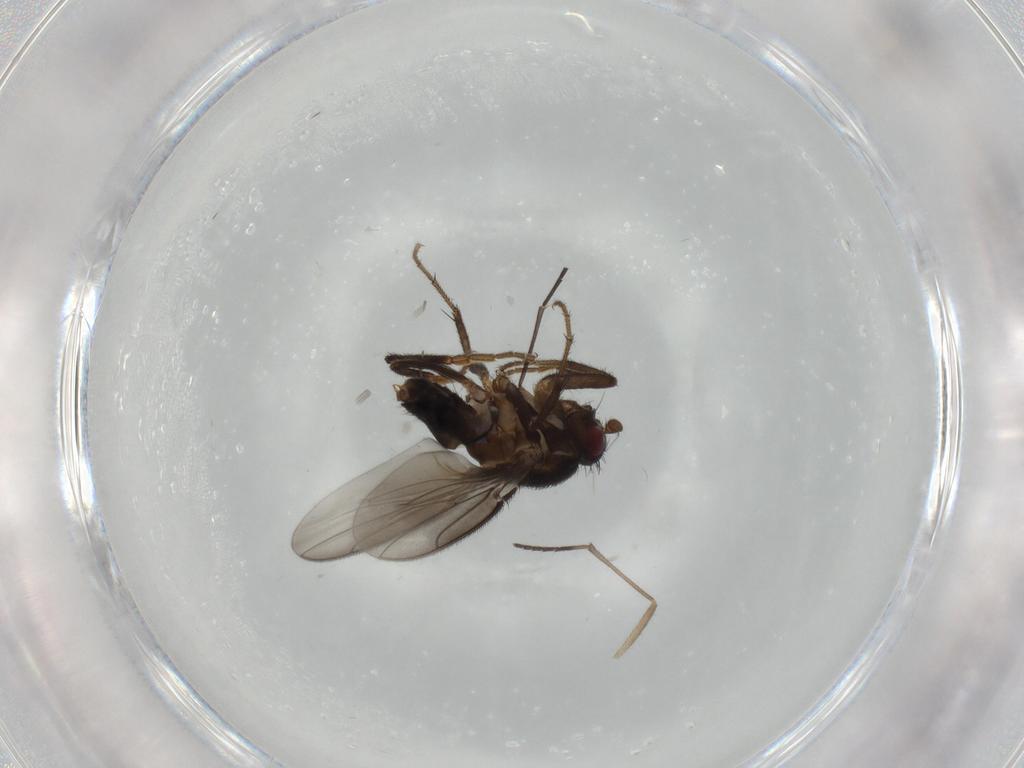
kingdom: Animalia
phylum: Arthropoda
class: Insecta
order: Diptera
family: Sphaeroceridae
